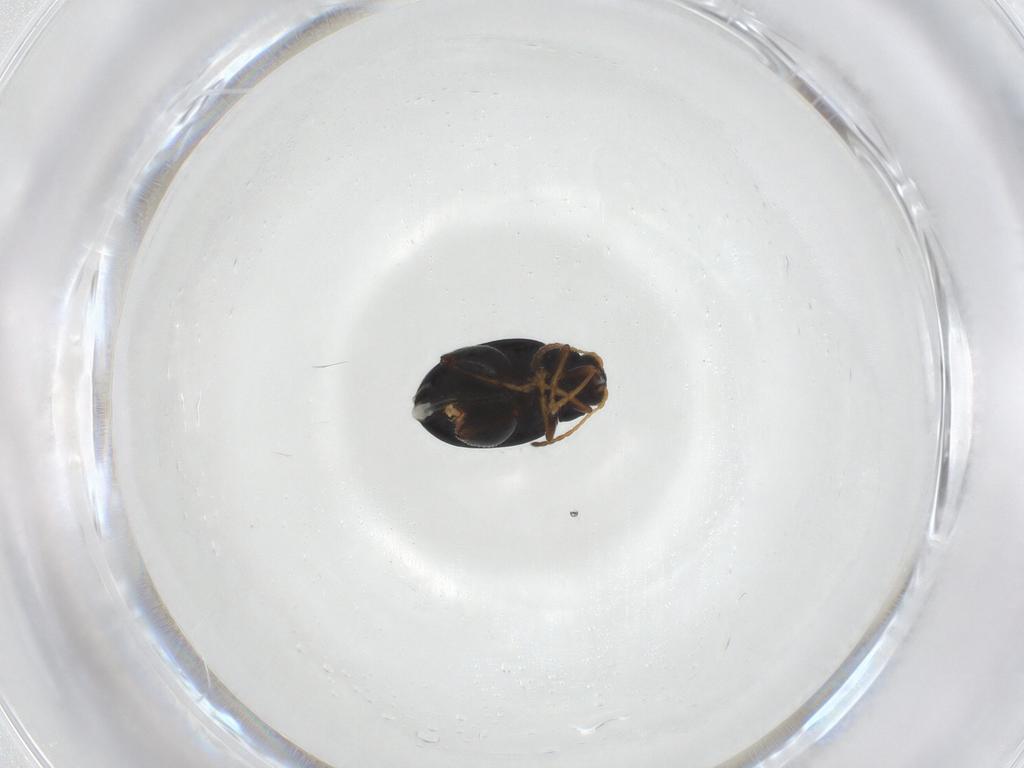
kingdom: Animalia
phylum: Arthropoda
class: Insecta
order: Coleoptera
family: Chrysomelidae
